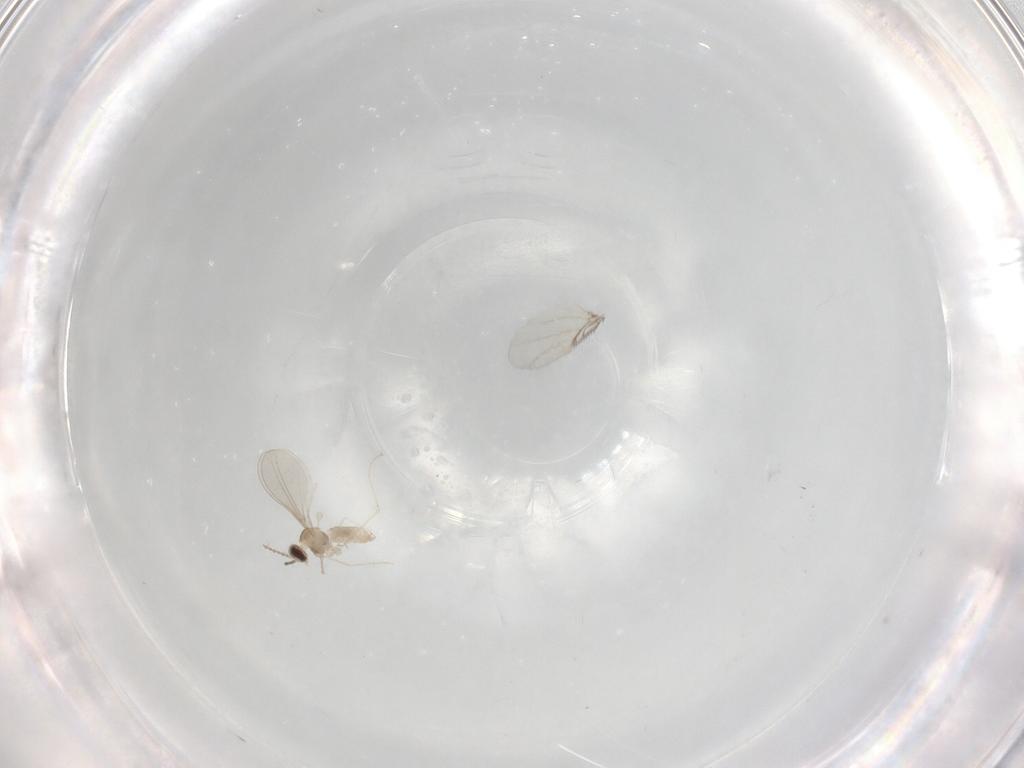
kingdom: Animalia
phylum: Arthropoda
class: Insecta
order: Diptera
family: Cecidomyiidae
